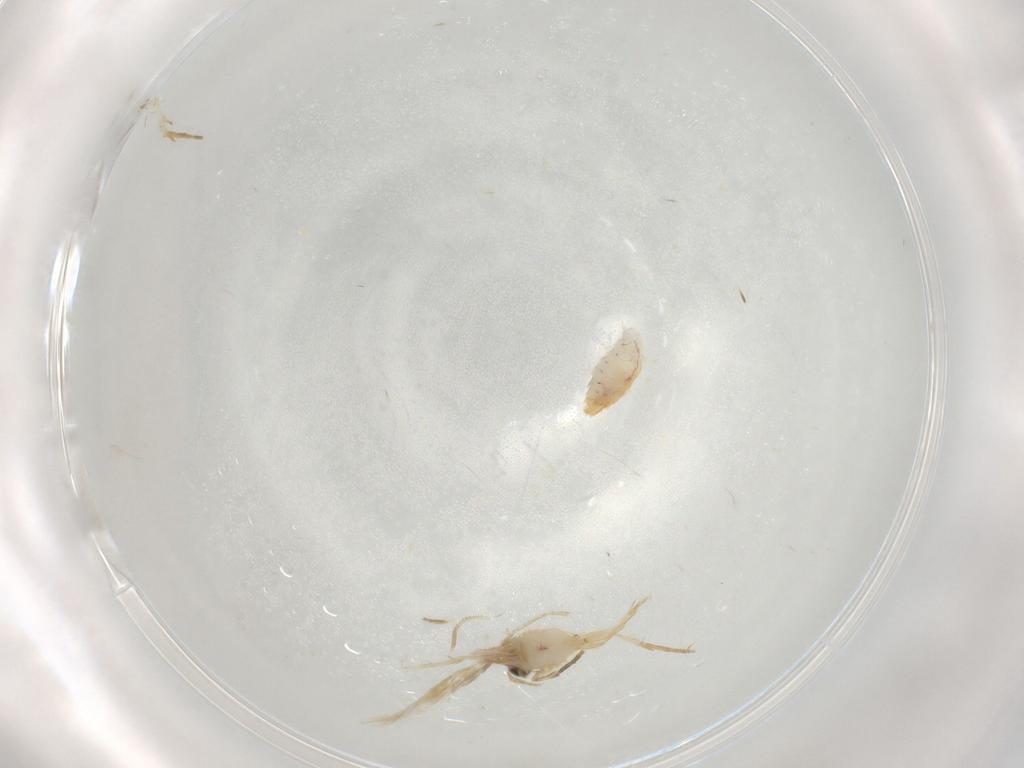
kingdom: Animalia
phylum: Arthropoda
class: Insecta
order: Lepidoptera
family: Nepticulidae
